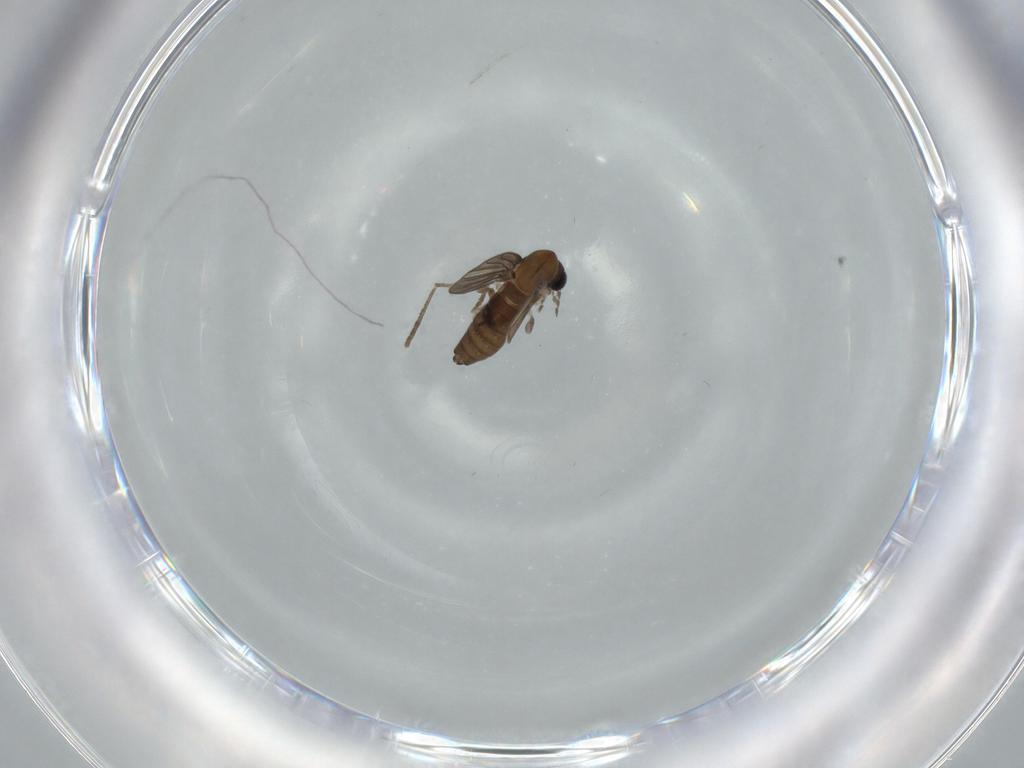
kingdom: Animalia
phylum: Arthropoda
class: Insecta
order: Diptera
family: Psychodidae
